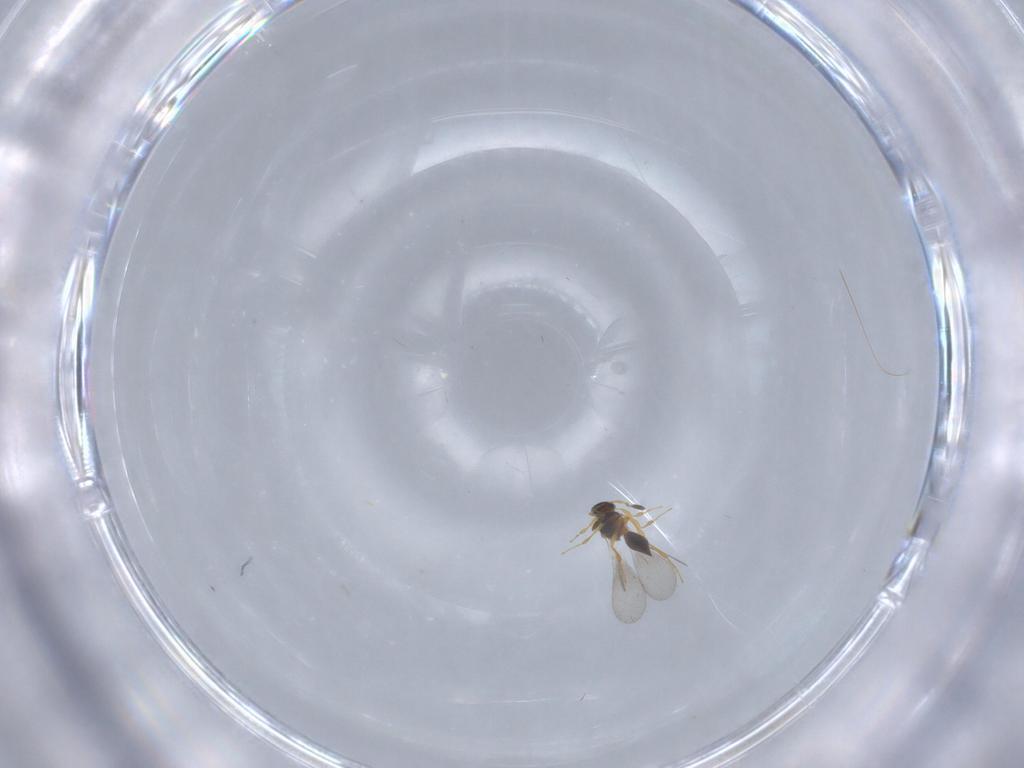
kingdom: Animalia
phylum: Arthropoda
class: Insecta
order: Hymenoptera
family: Platygastridae
